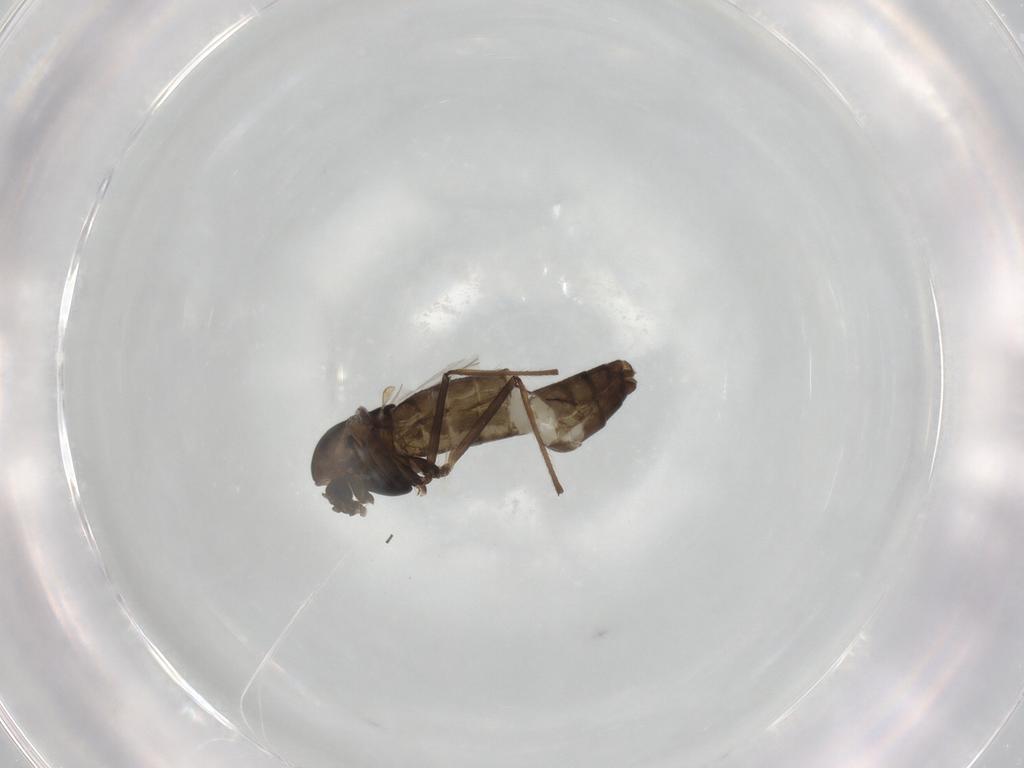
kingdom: Animalia
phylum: Arthropoda
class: Insecta
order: Diptera
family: Chironomidae
